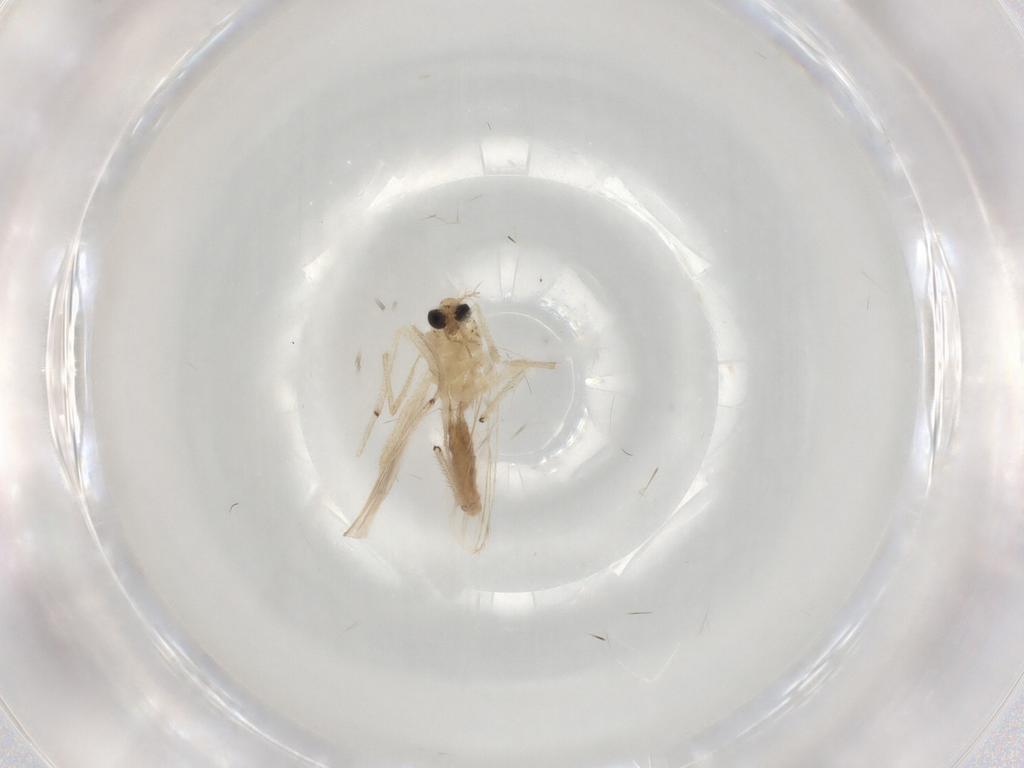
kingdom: Animalia
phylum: Arthropoda
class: Insecta
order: Diptera
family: Chironomidae
